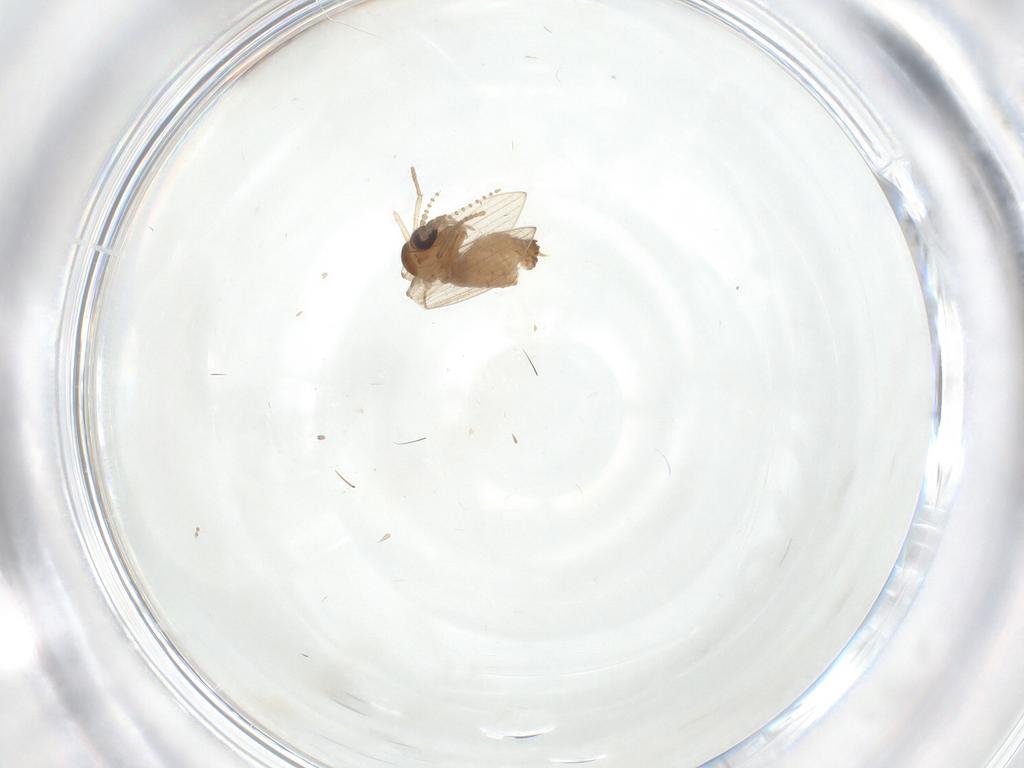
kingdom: Animalia
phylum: Arthropoda
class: Insecta
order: Diptera
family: Psychodidae
